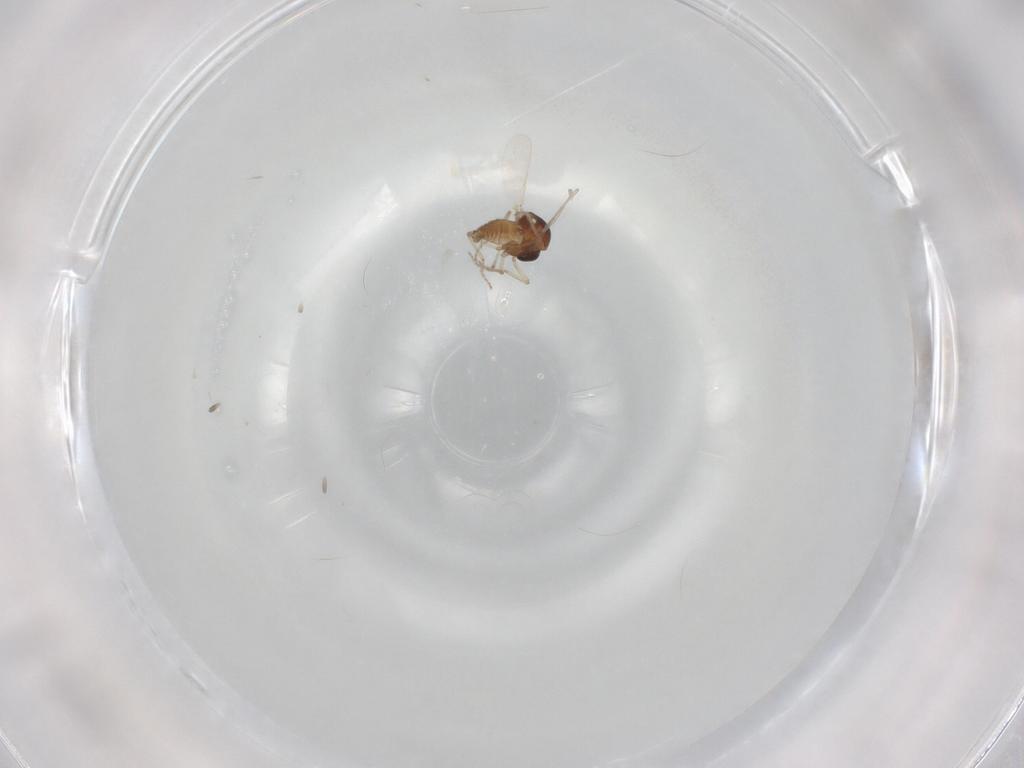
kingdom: Animalia
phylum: Arthropoda
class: Insecta
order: Diptera
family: Ceratopogonidae
